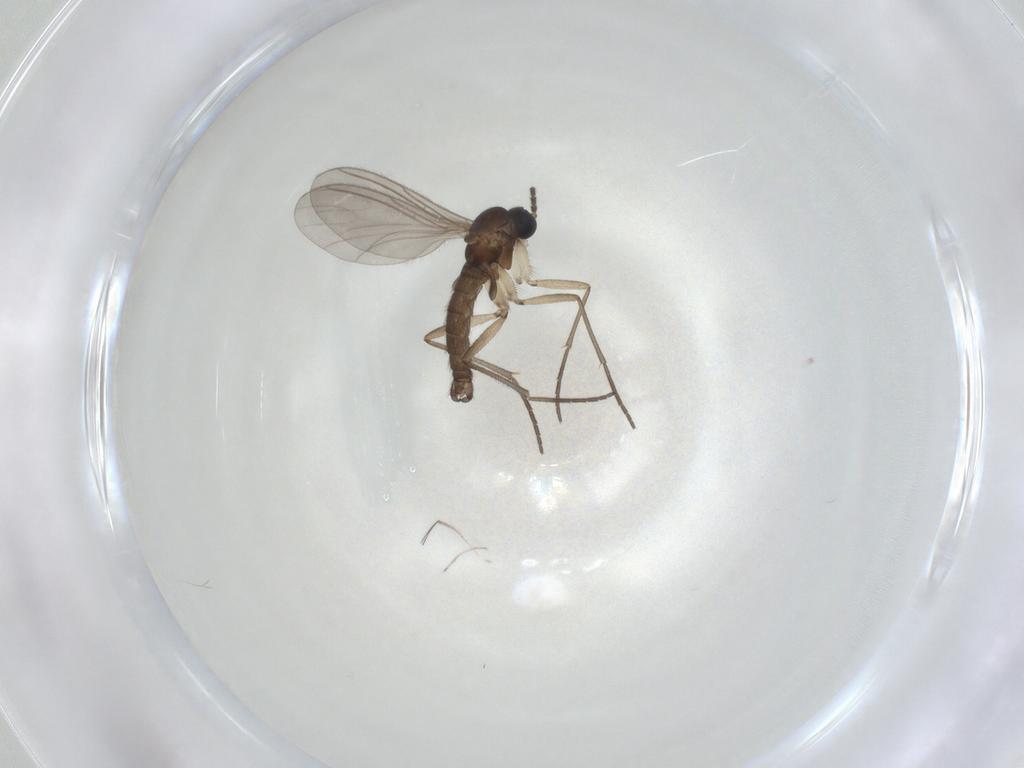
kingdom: Animalia
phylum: Arthropoda
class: Insecta
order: Diptera
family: Sciaridae
